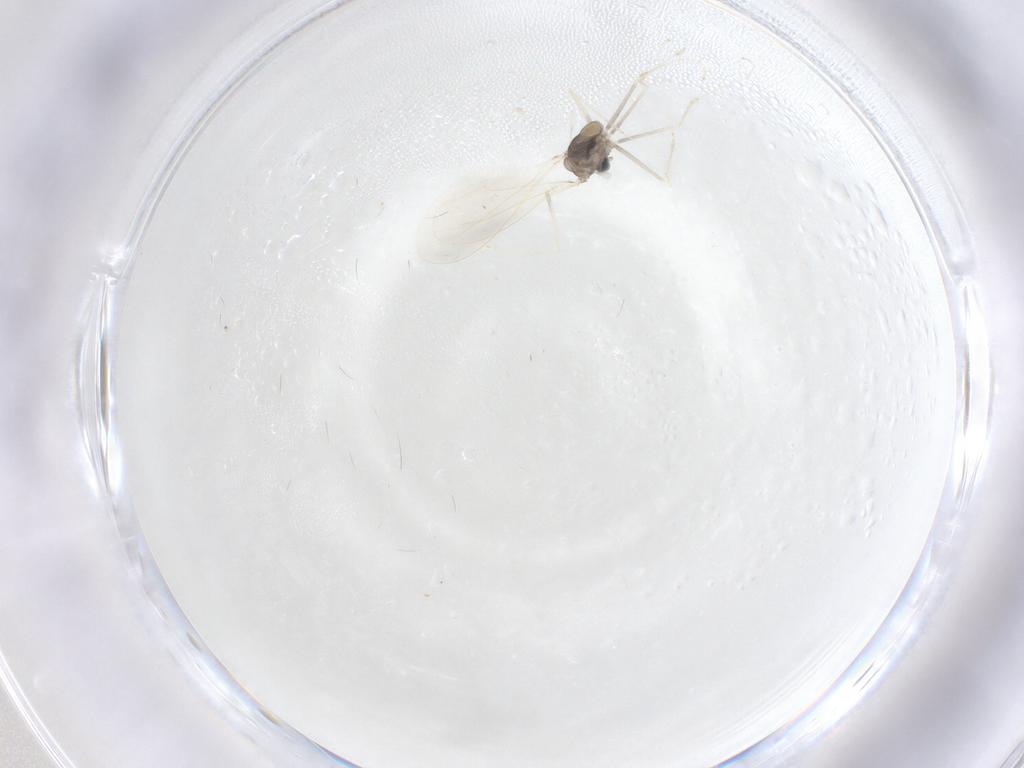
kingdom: Animalia
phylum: Arthropoda
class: Insecta
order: Diptera
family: Cecidomyiidae
